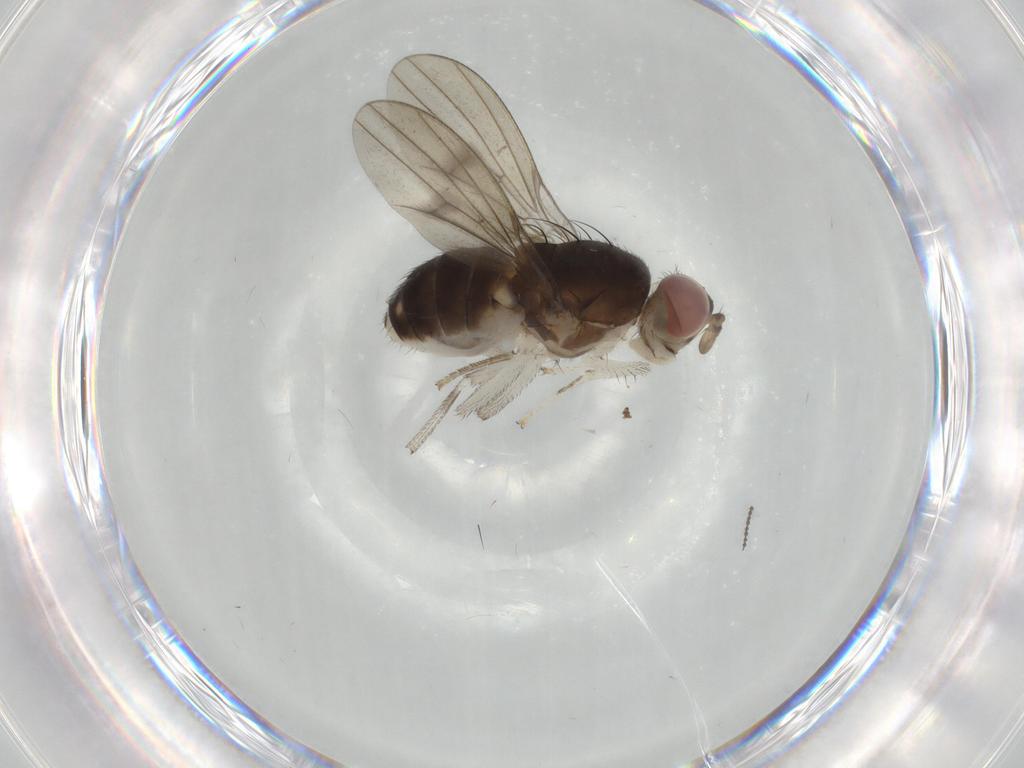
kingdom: Animalia
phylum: Arthropoda
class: Insecta
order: Diptera
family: Lauxaniidae
